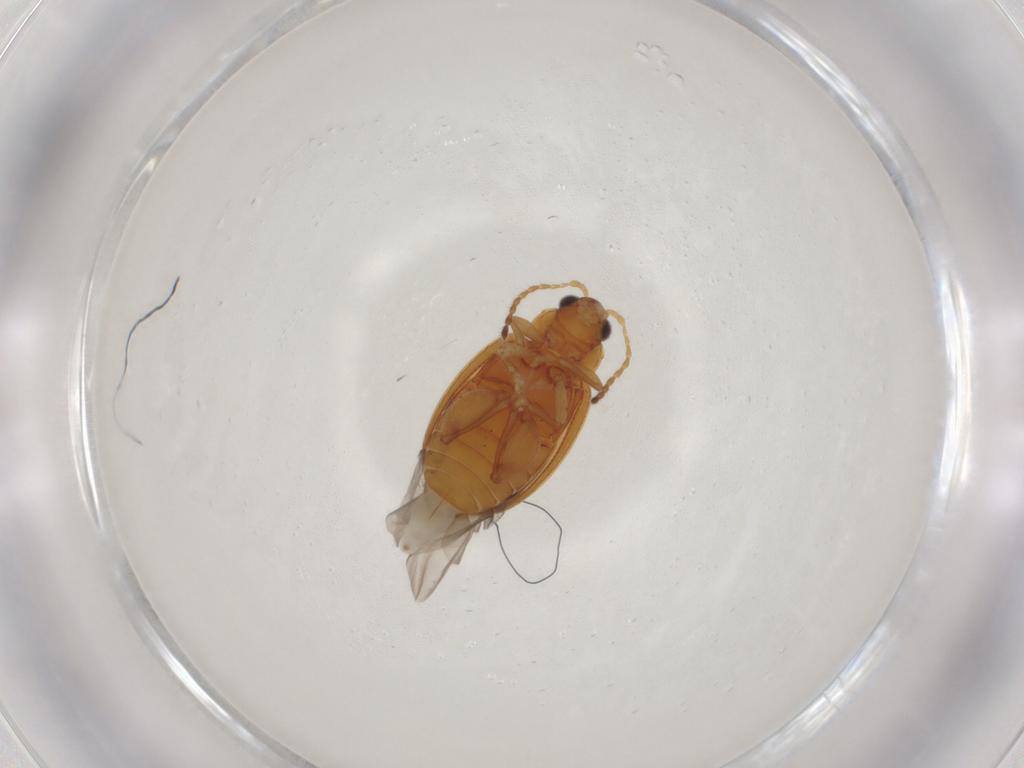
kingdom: Animalia
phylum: Arthropoda
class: Insecta
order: Coleoptera
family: Chrysomelidae
